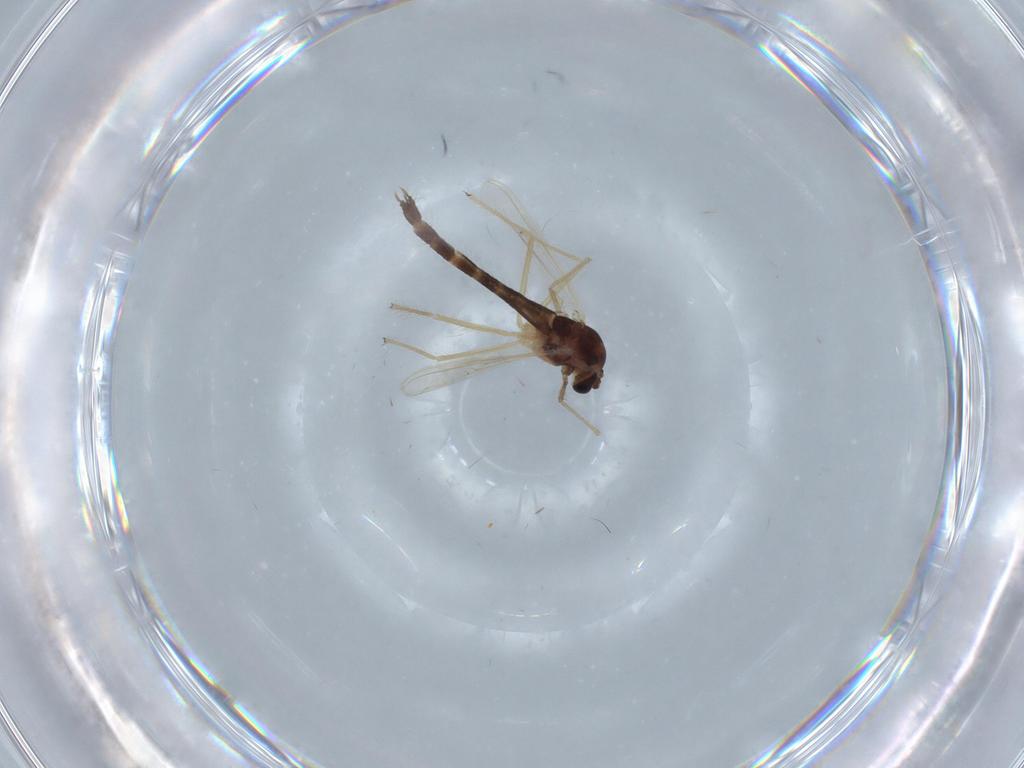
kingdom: Animalia
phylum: Arthropoda
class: Insecta
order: Diptera
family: Chironomidae
